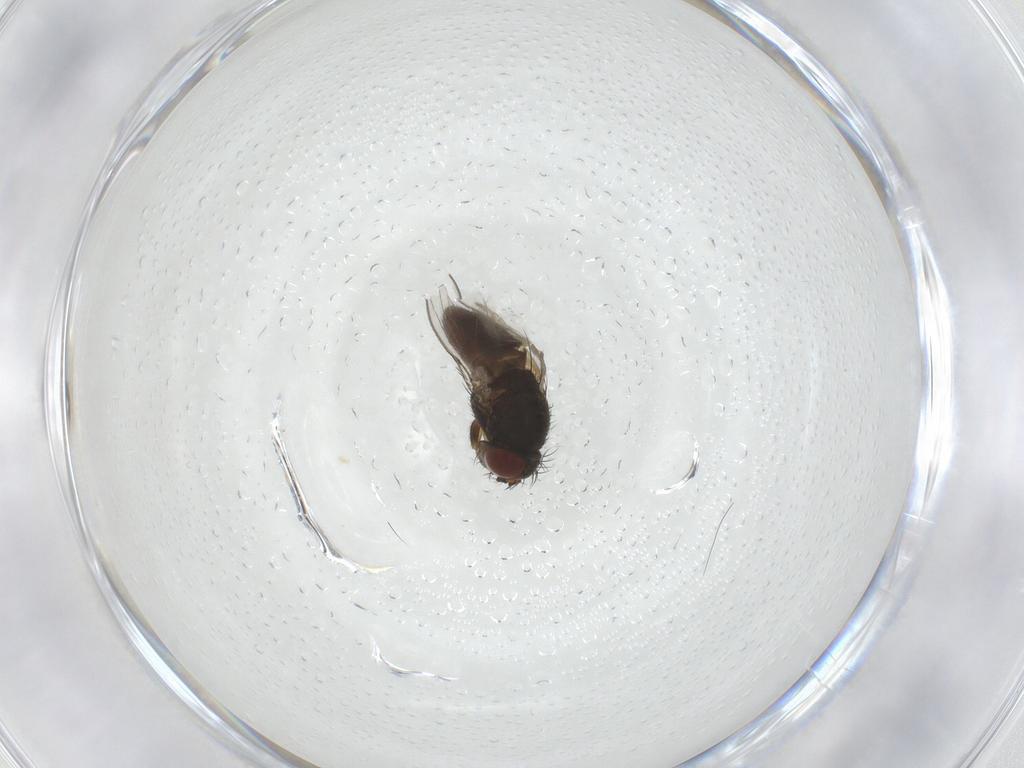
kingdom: Animalia
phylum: Arthropoda
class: Insecta
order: Diptera
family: Ephydridae
